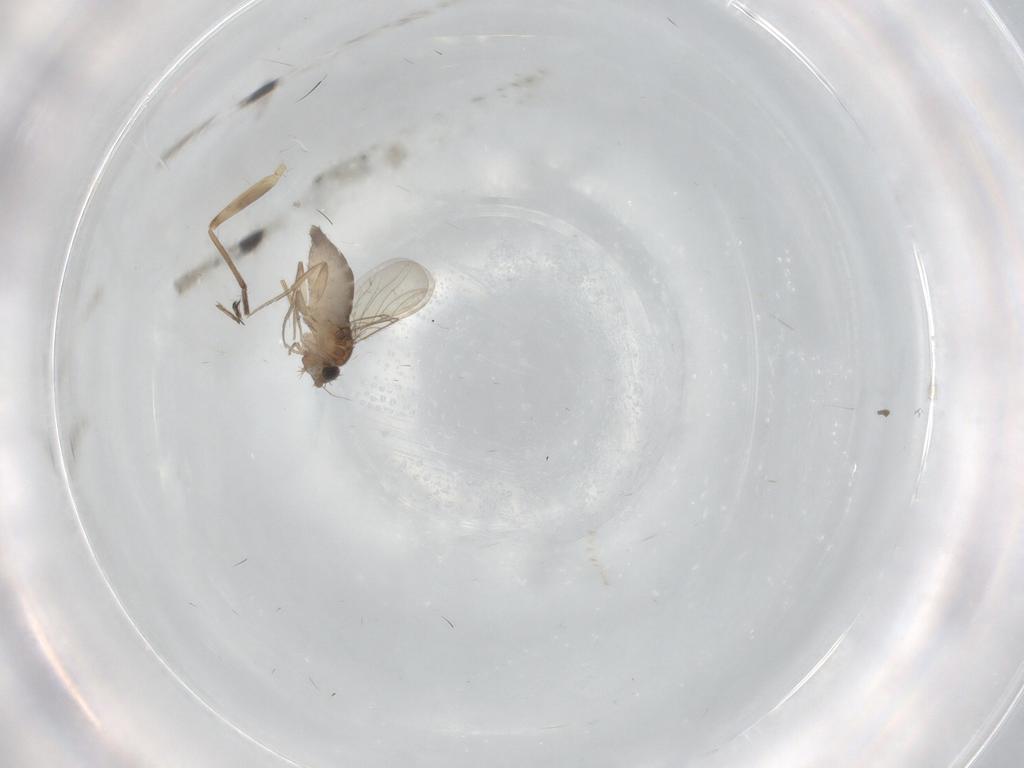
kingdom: Animalia
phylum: Arthropoda
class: Insecta
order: Diptera
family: Phoridae
